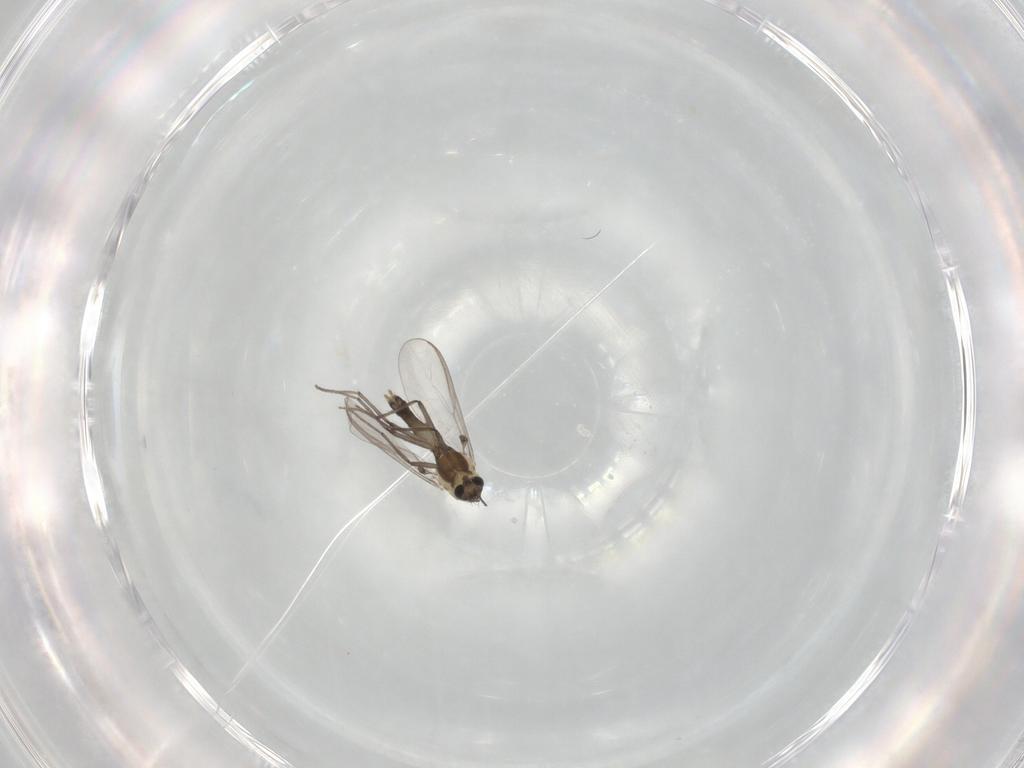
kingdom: Animalia
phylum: Arthropoda
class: Insecta
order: Diptera
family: Chironomidae
